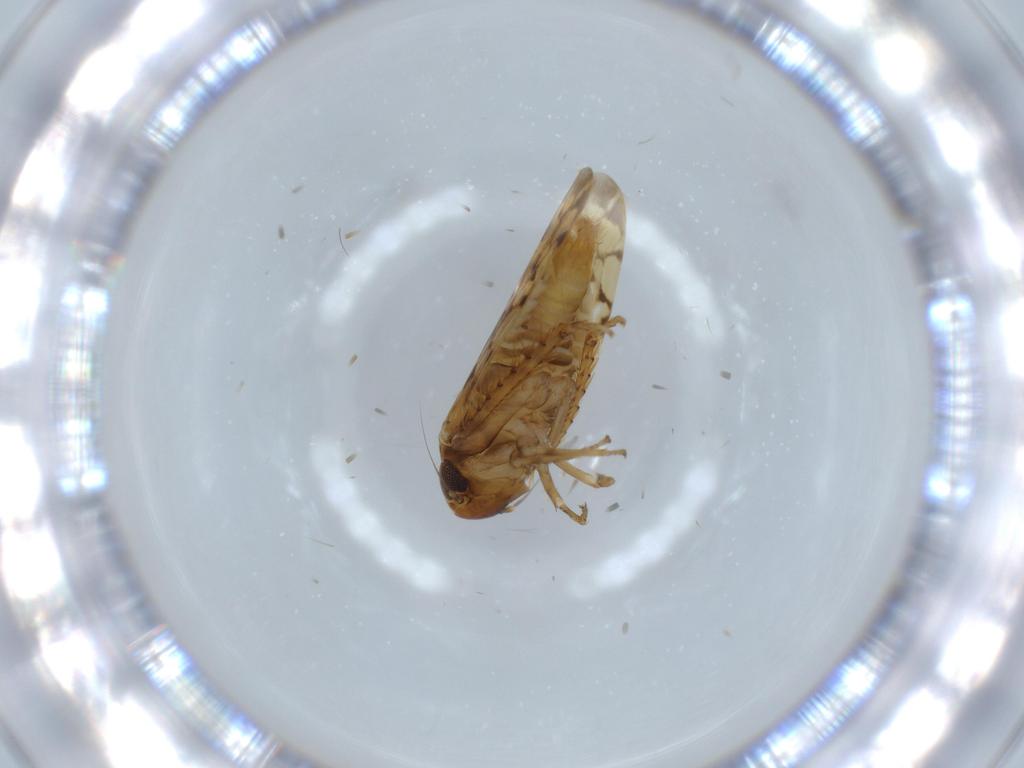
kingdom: Animalia
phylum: Arthropoda
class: Insecta
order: Hemiptera
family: Cicadellidae
